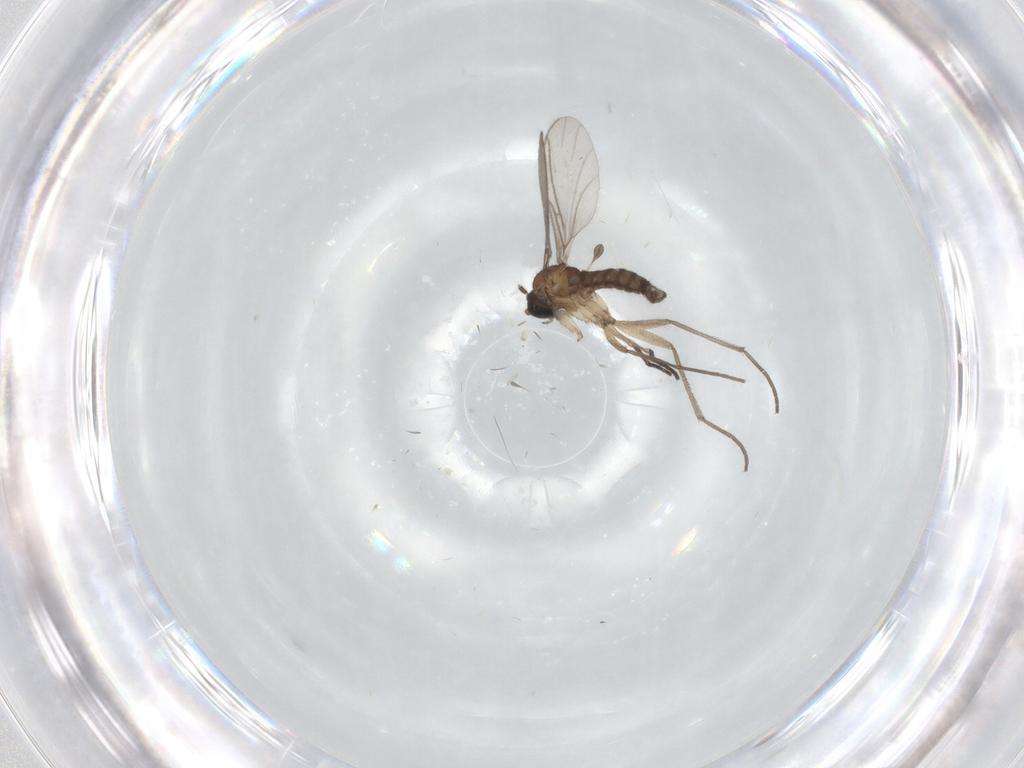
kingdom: Animalia
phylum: Arthropoda
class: Insecta
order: Diptera
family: Sciaridae
